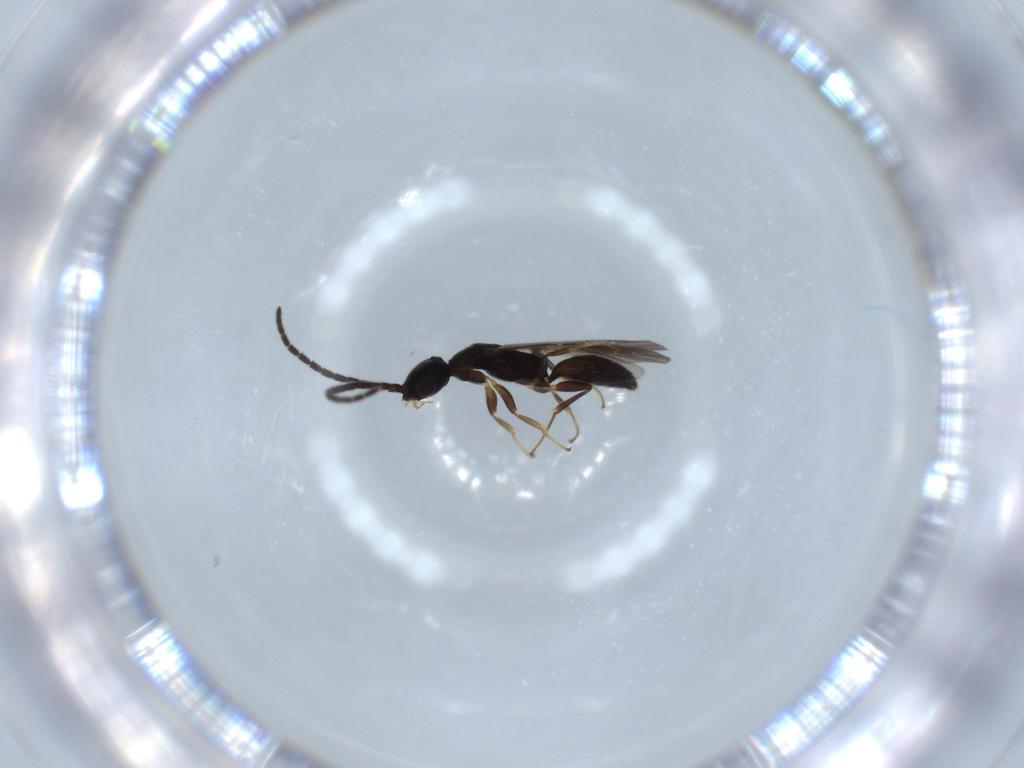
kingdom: Animalia
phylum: Arthropoda
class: Insecta
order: Hymenoptera
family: Bethylidae
